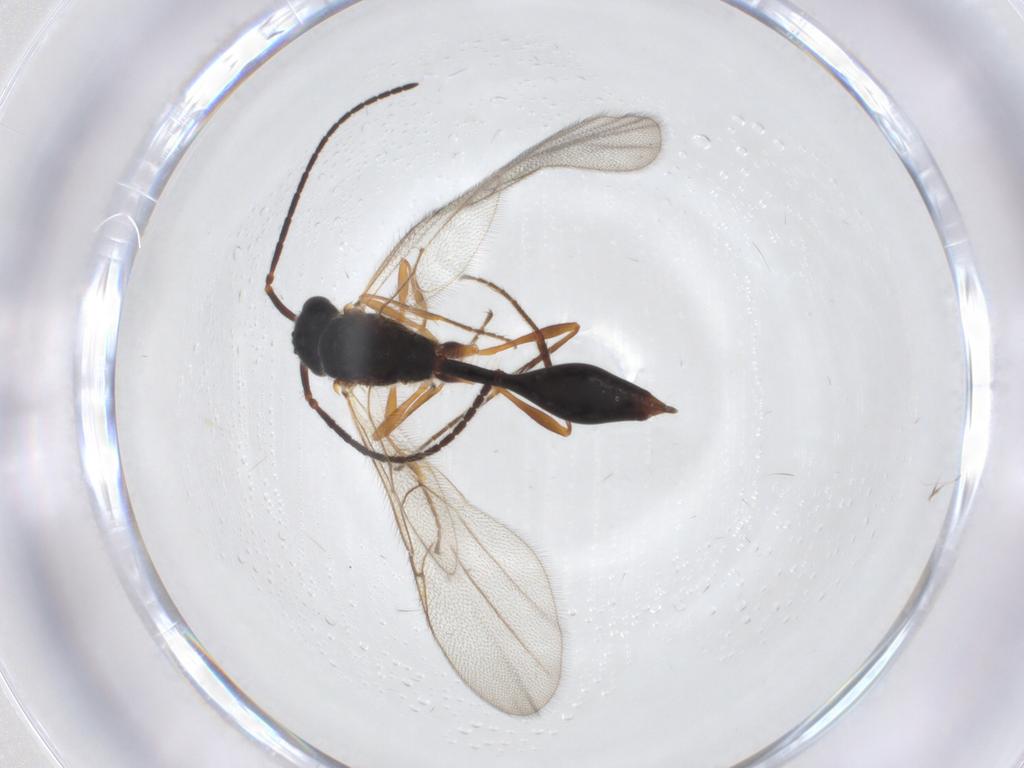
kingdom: Animalia
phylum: Arthropoda
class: Insecta
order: Hymenoptera
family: Diapriidae
